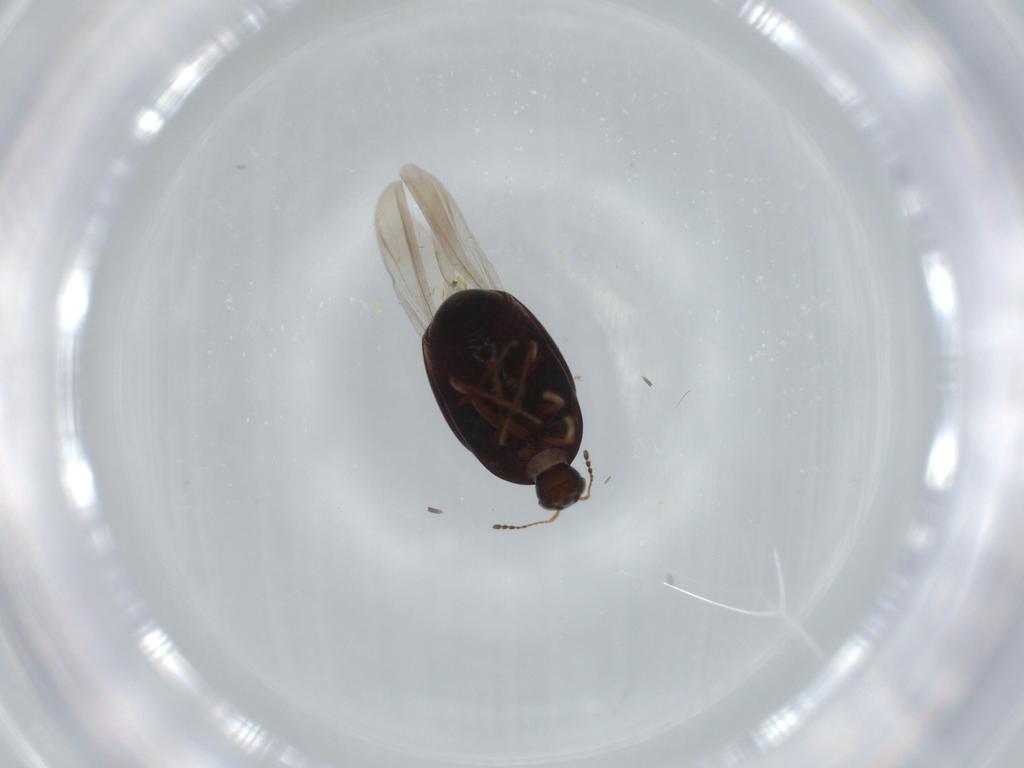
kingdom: Animalia
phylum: Arthropoda
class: Insecta
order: Coleoptera
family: Staphylinidae
